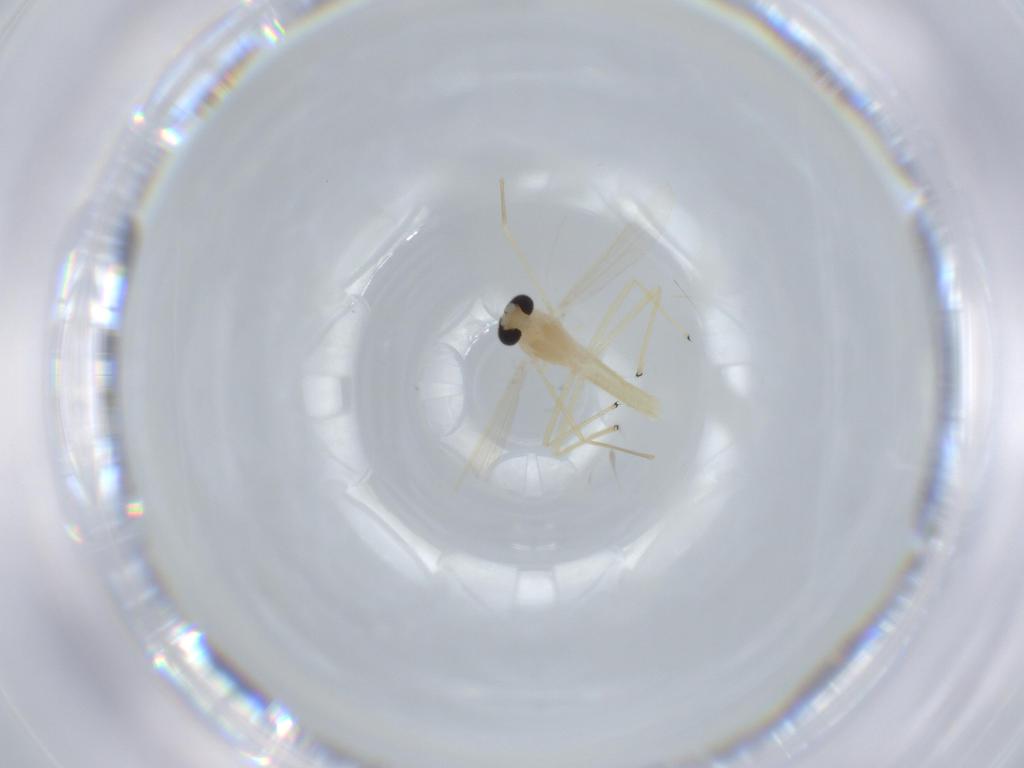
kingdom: Animalia
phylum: Arthropoda
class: Insecta
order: Diptera
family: Chironomidae
